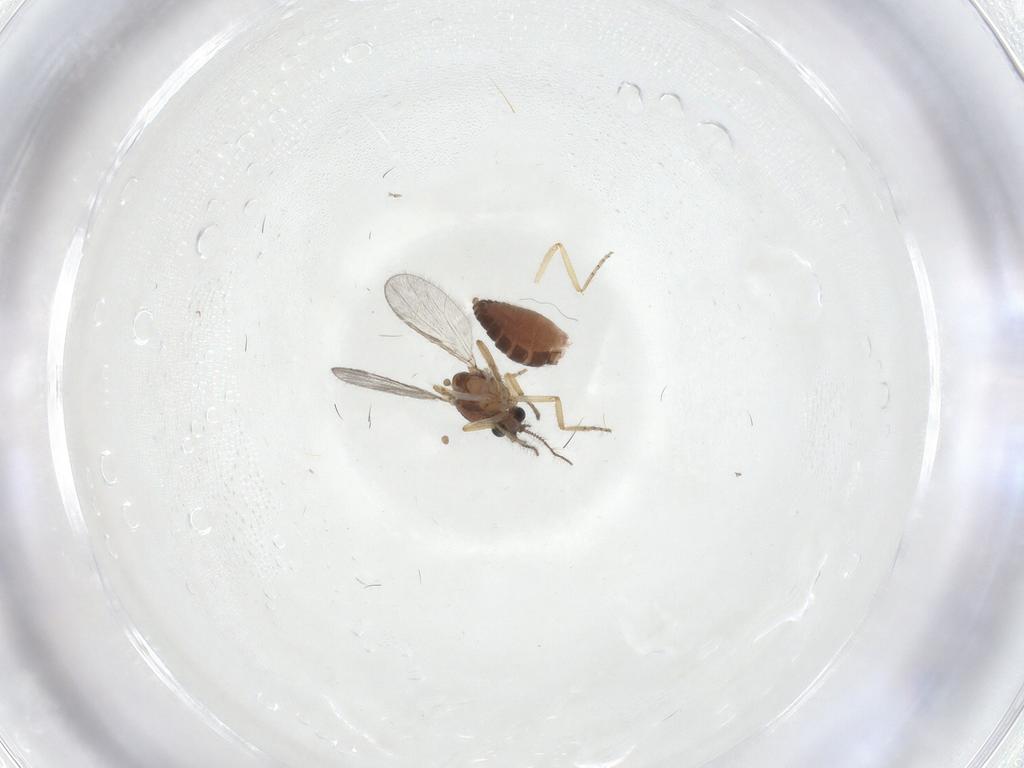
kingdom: Animalia
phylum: Arthropoda
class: Insecta
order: Diptera
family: Ceratopogonidae
